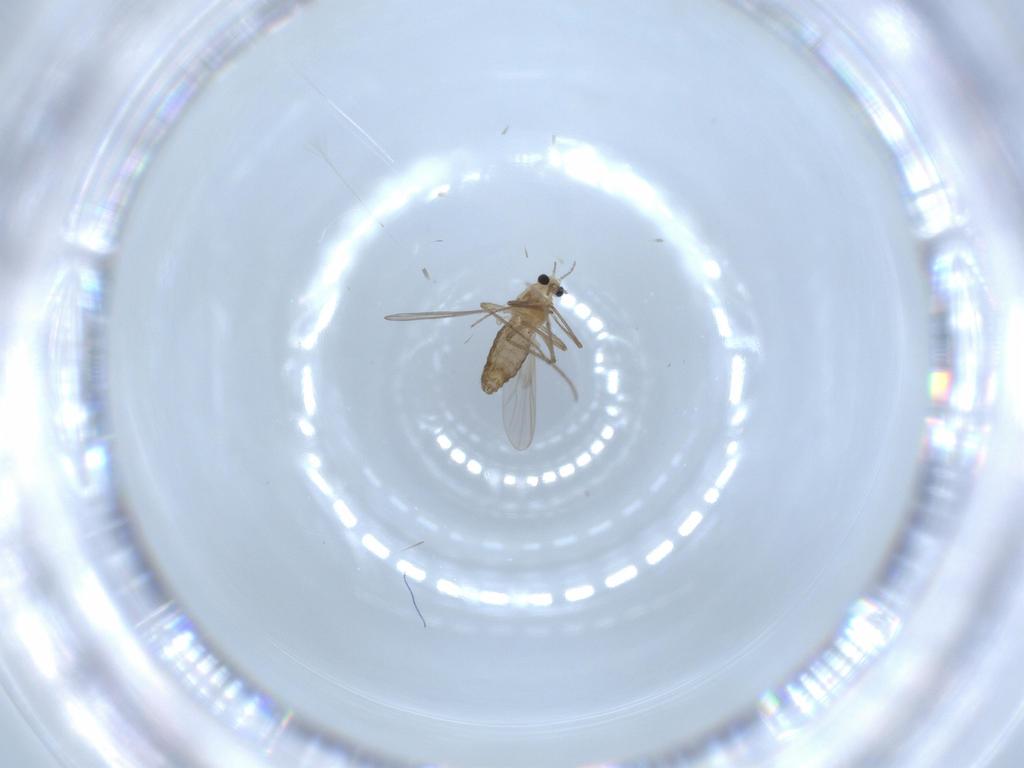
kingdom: Animalia
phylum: Arthropoda
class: Insecta
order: Diptera
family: Chironomidae
